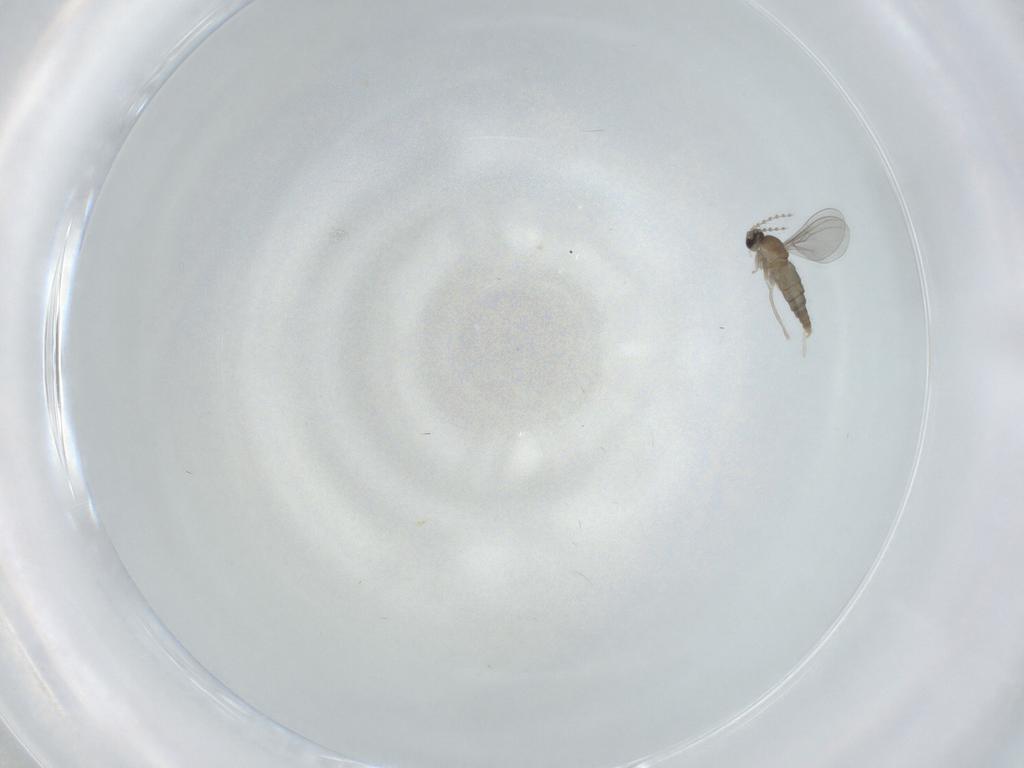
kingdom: Animalia
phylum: Arthropoda
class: Insecta
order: Diptera
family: Cecidomyiidae
